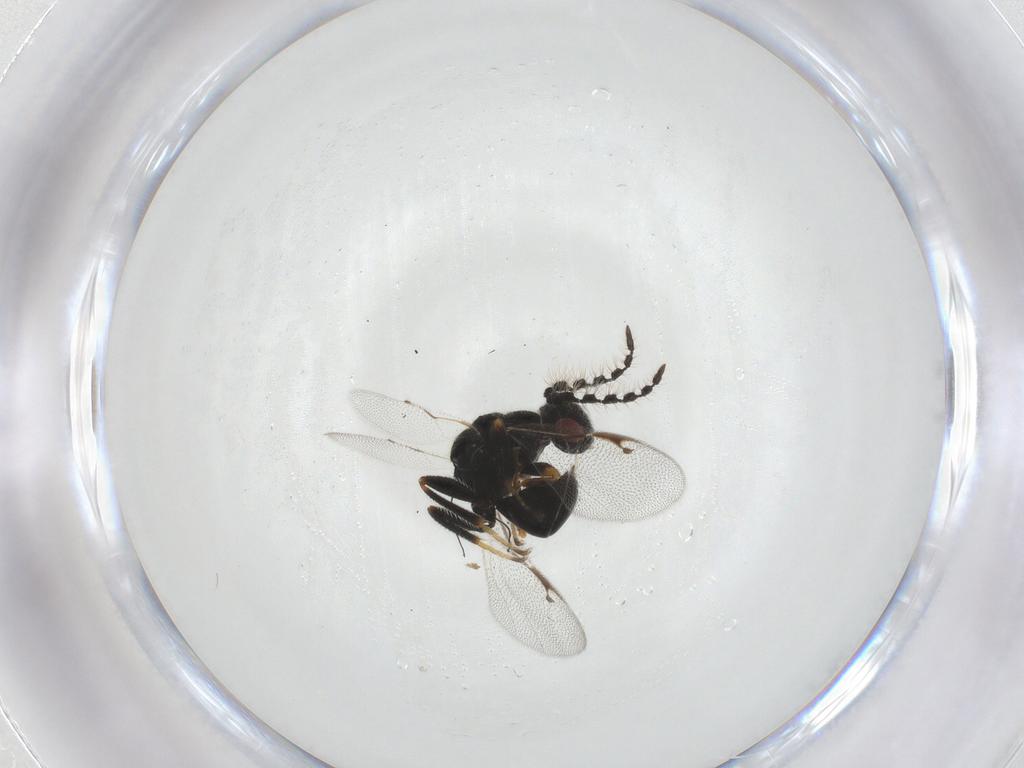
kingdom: Animalia
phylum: Arthropoda
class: Insecta
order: Hymenoptera
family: Eurytomidae
